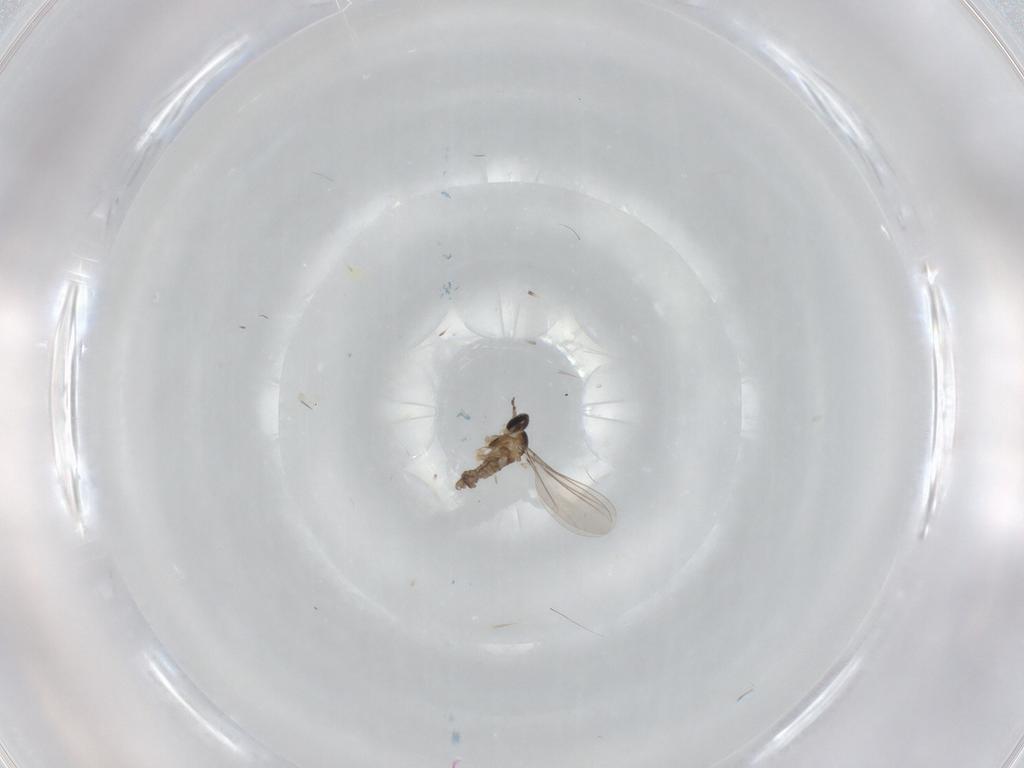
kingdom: Animalia
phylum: Arthropoda
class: Insecta
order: Diptera
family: Cecidomyiidae
